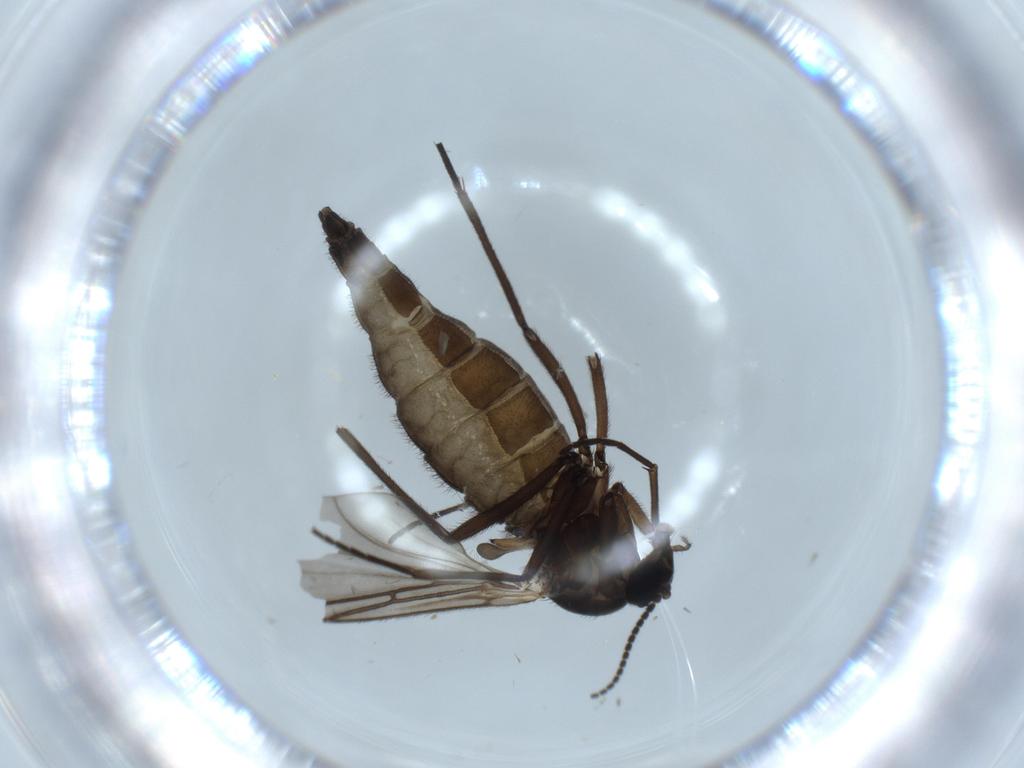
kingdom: Animalia
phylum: Arthropoda
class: Insecta
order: Diptera
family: Sciaridae
